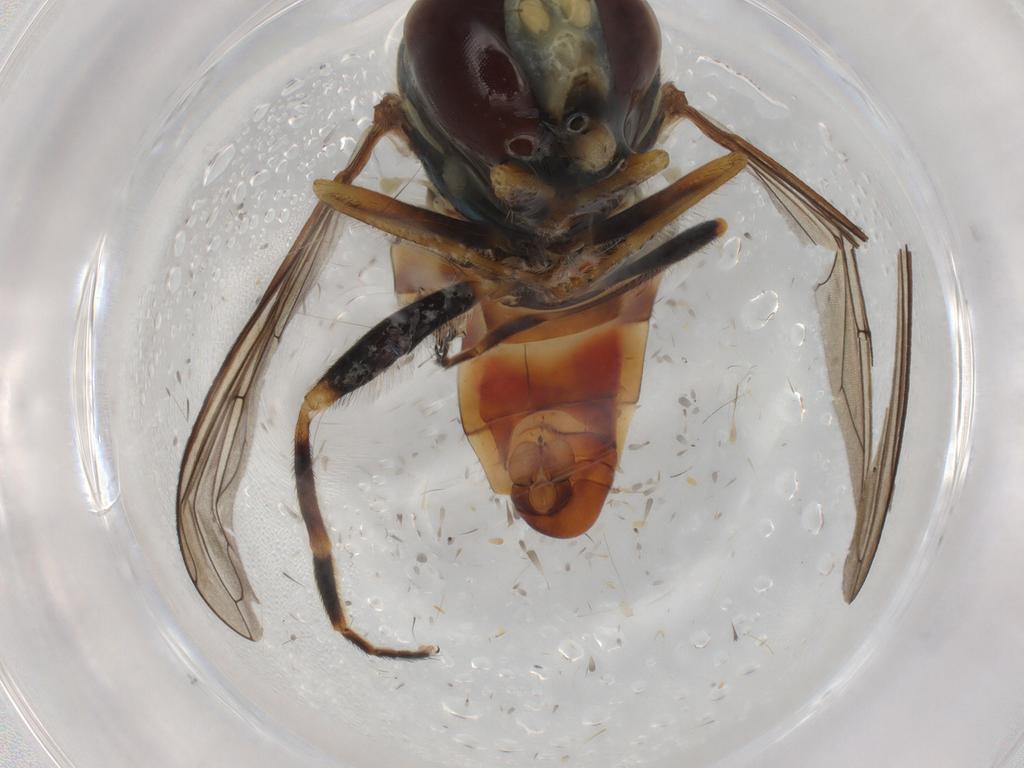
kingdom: Animalia
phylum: Arthropoda
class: Insecta
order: Diptera
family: Syrphidae
